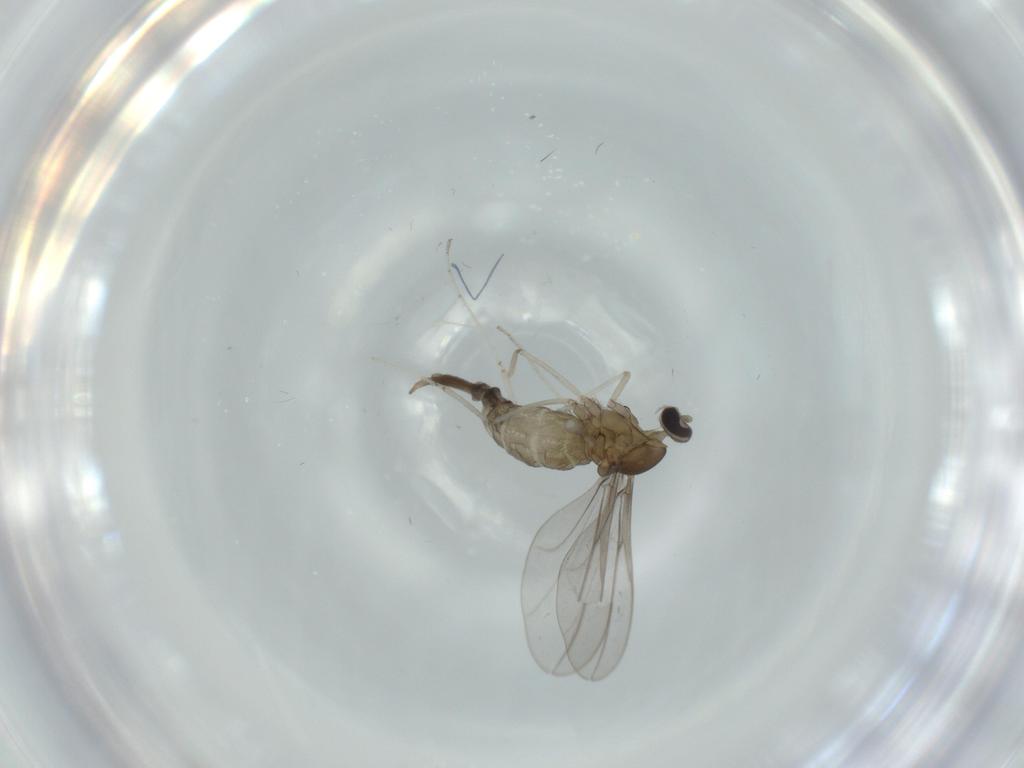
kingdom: Animalia
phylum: Arthropoda
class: Insecta
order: Diptera
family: Cecidomyiidae
